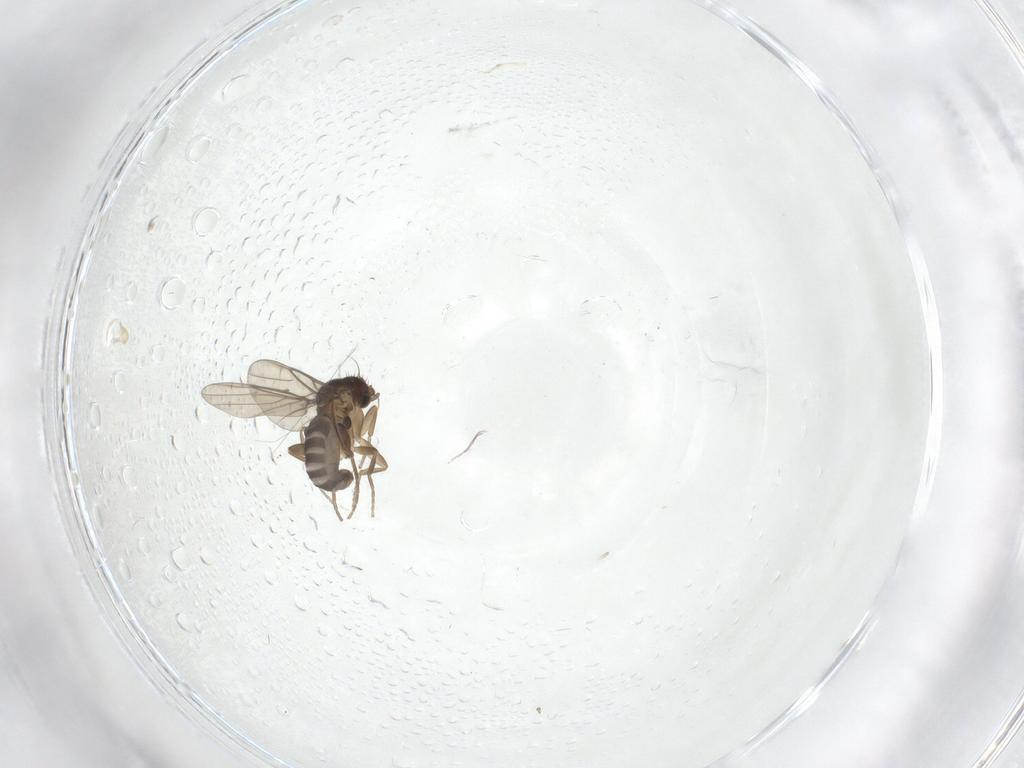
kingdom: Animalia
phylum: Arthropoda
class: Insecta
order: Diptera
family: Phoridae
